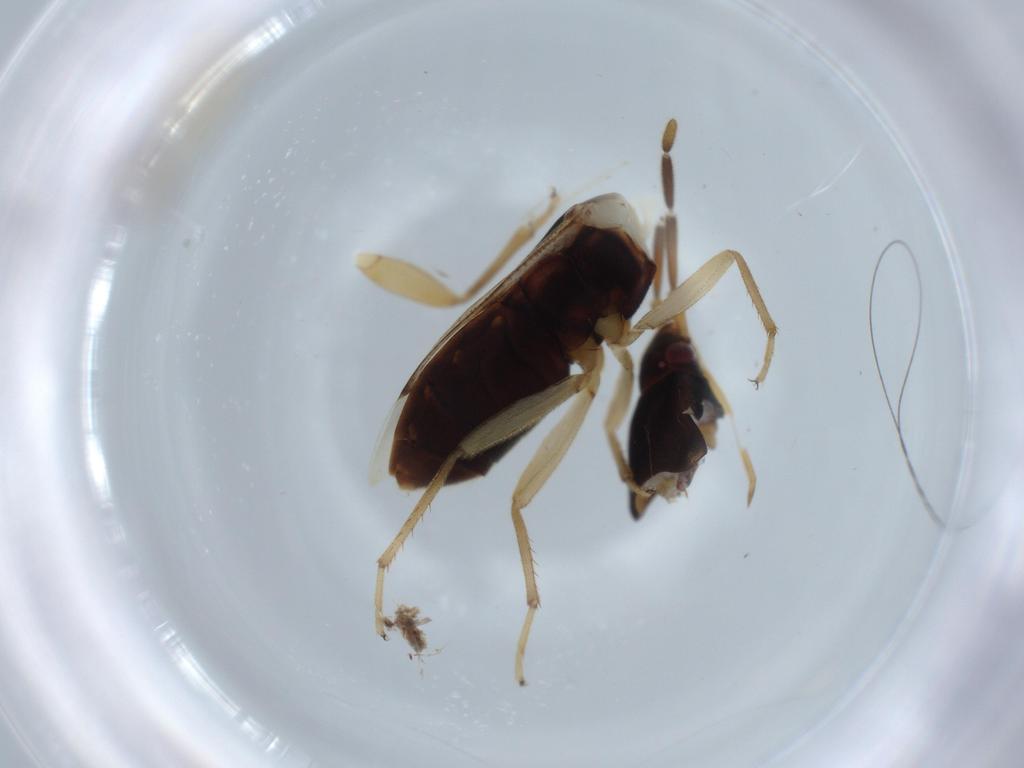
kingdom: Animalia
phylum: Arthropoda
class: Insecta
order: Hemiptera
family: Rhyparochromidae
